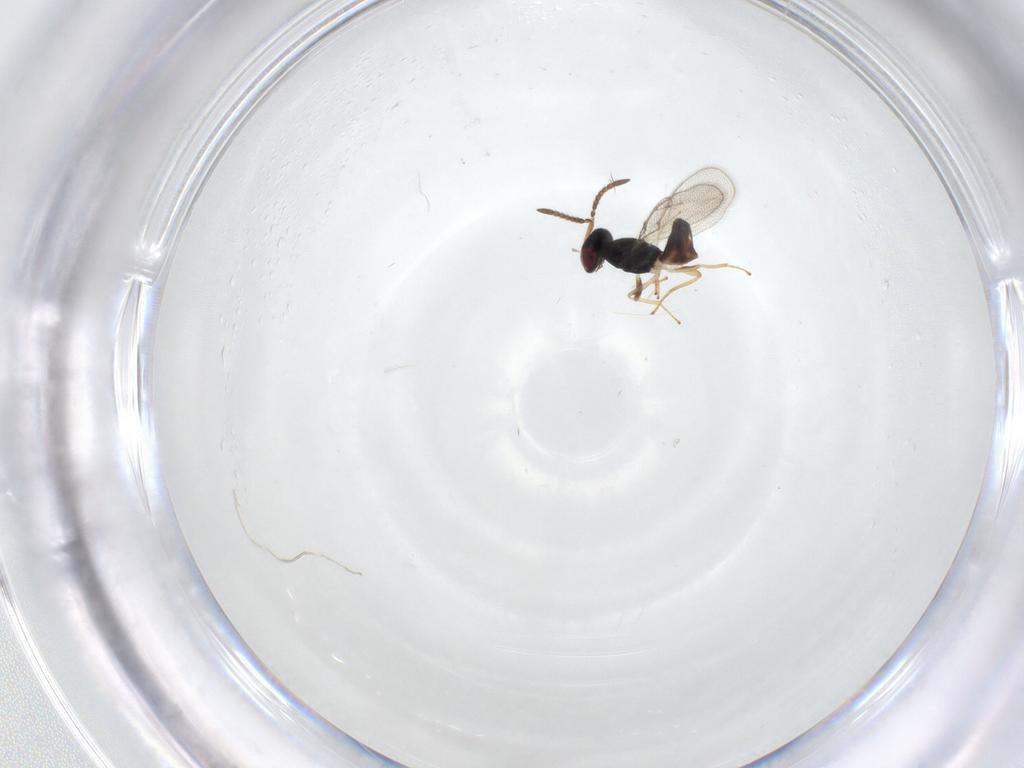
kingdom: Animalia
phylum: Arthropoda
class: Insecta
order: Hymenoptera
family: Pteromalidae
